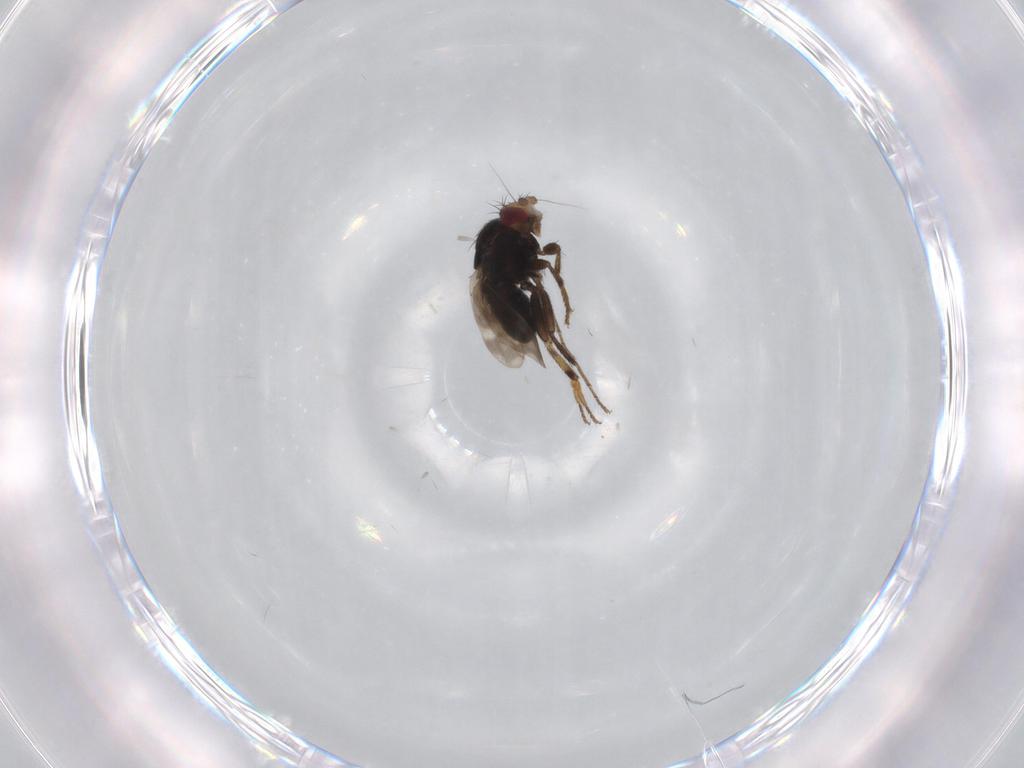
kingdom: Animalia
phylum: Arthropoda
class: Insecta
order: Diptera
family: Sphaeroceridae
